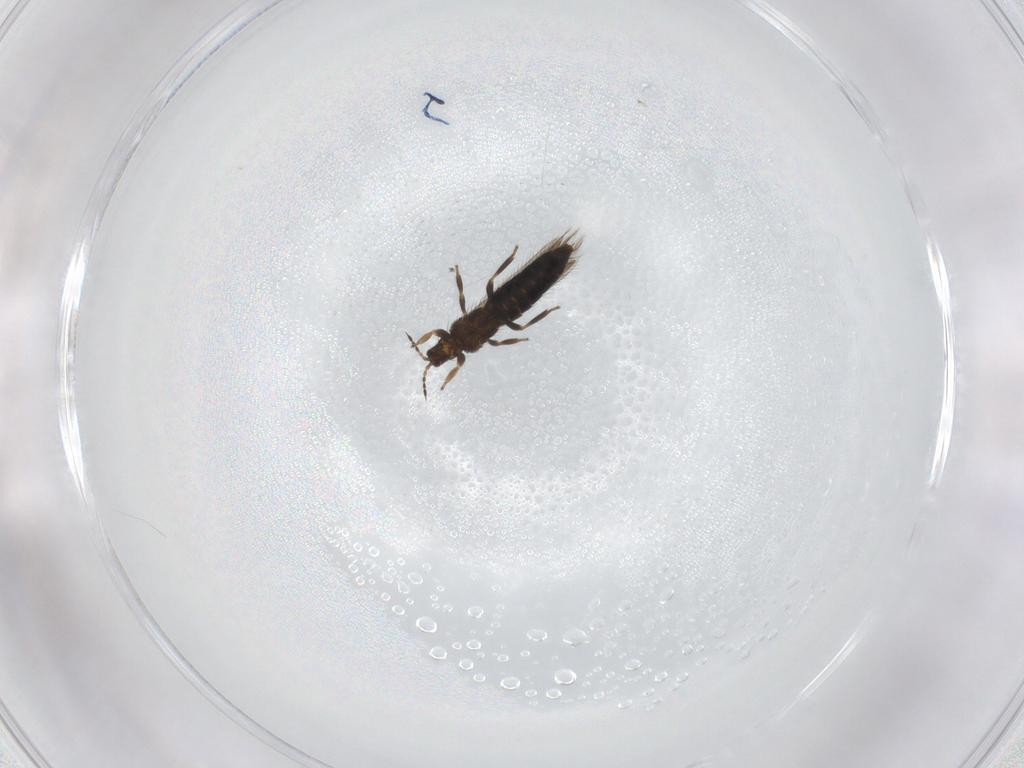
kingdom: Animalia
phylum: Arthropoda
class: Insecta
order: Thysanoptera
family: Thripidae
